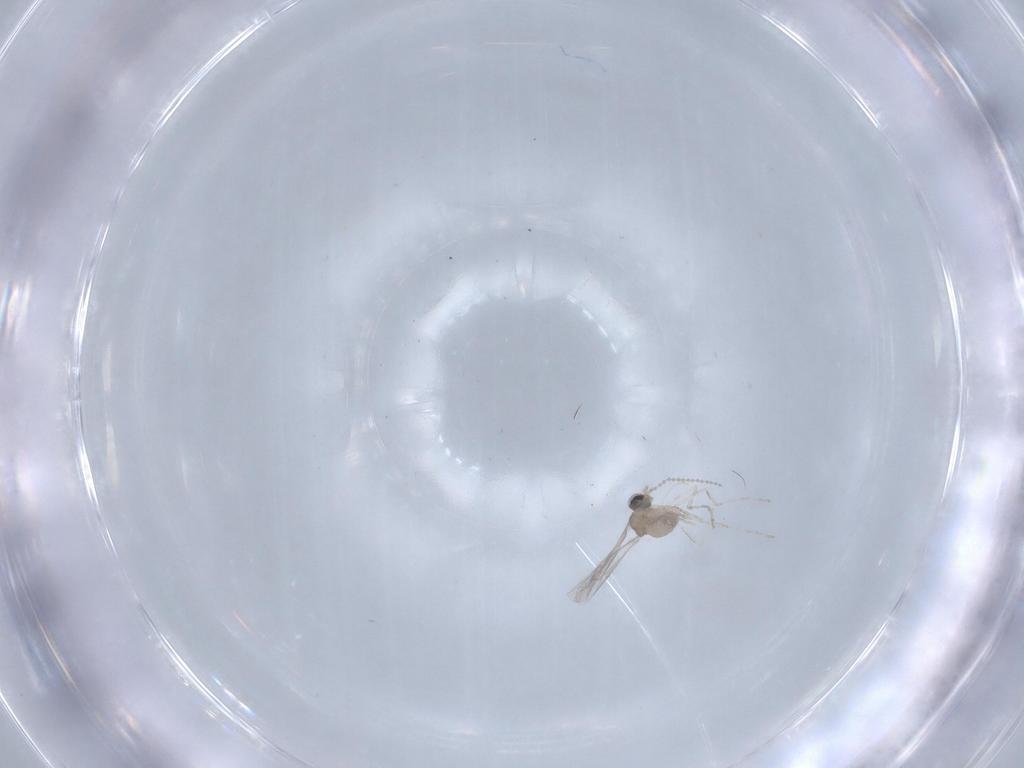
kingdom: Animalia
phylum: Arthropoda
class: Insecta
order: Diptera
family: Cecidomyiidae
